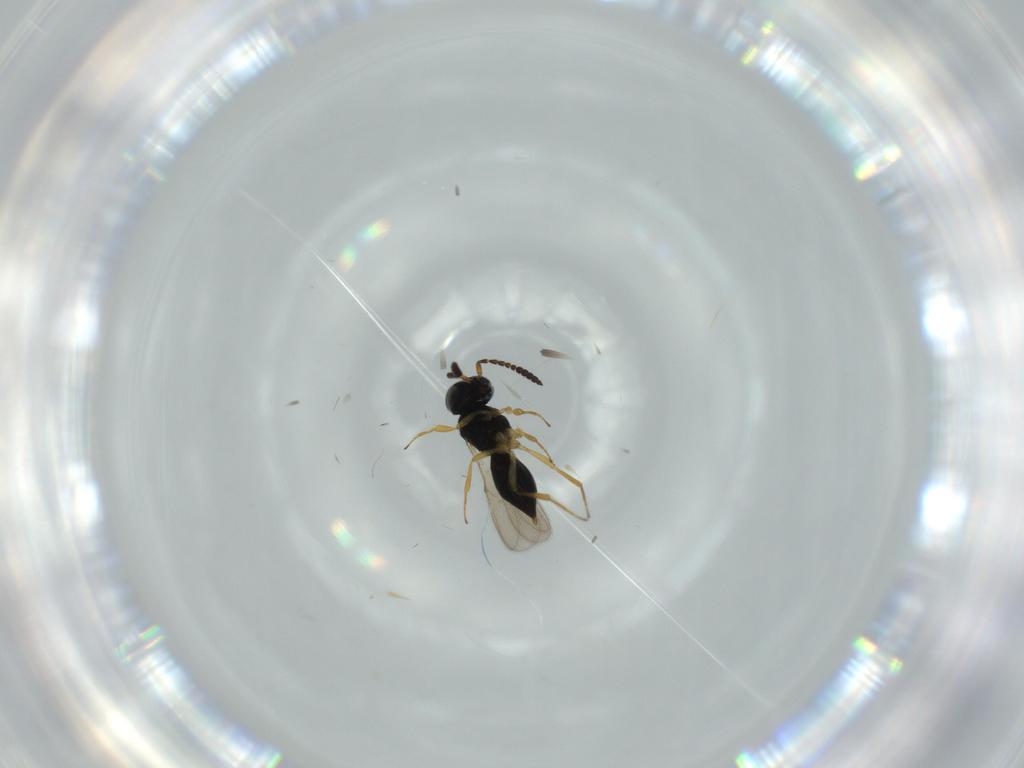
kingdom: Animalia
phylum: Arthropoda
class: Insecta
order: Hymenoptera
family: Scelionidae
